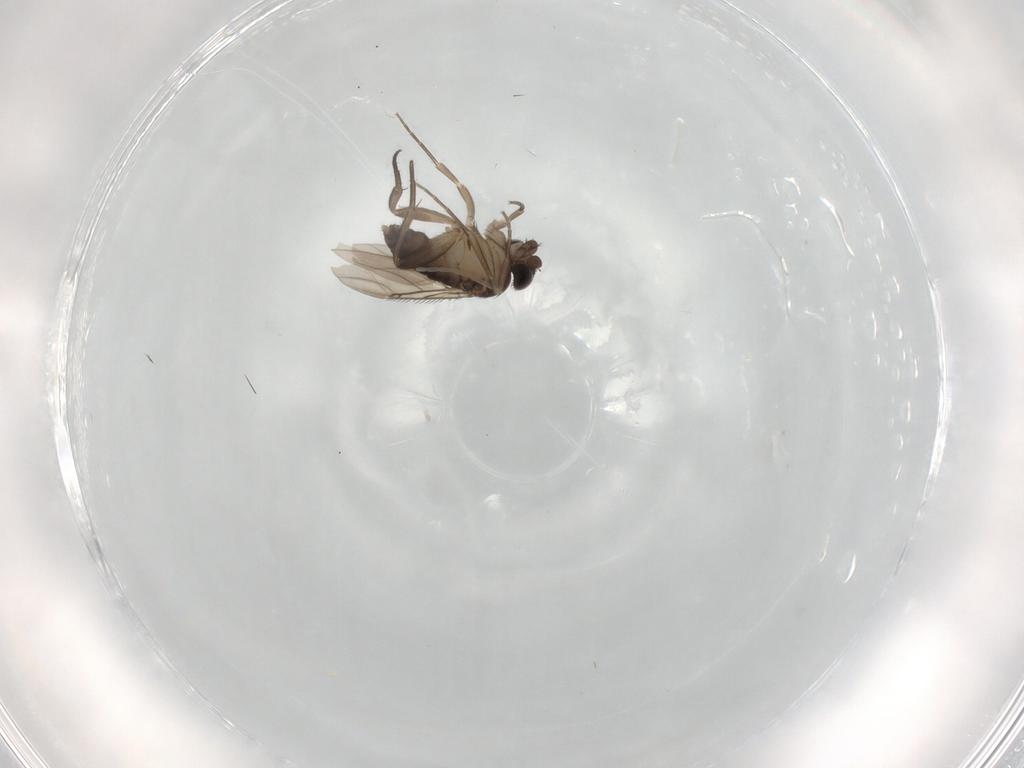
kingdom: Animalia
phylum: Arthropoda
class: Insecta
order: Diptera
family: Phoridae
